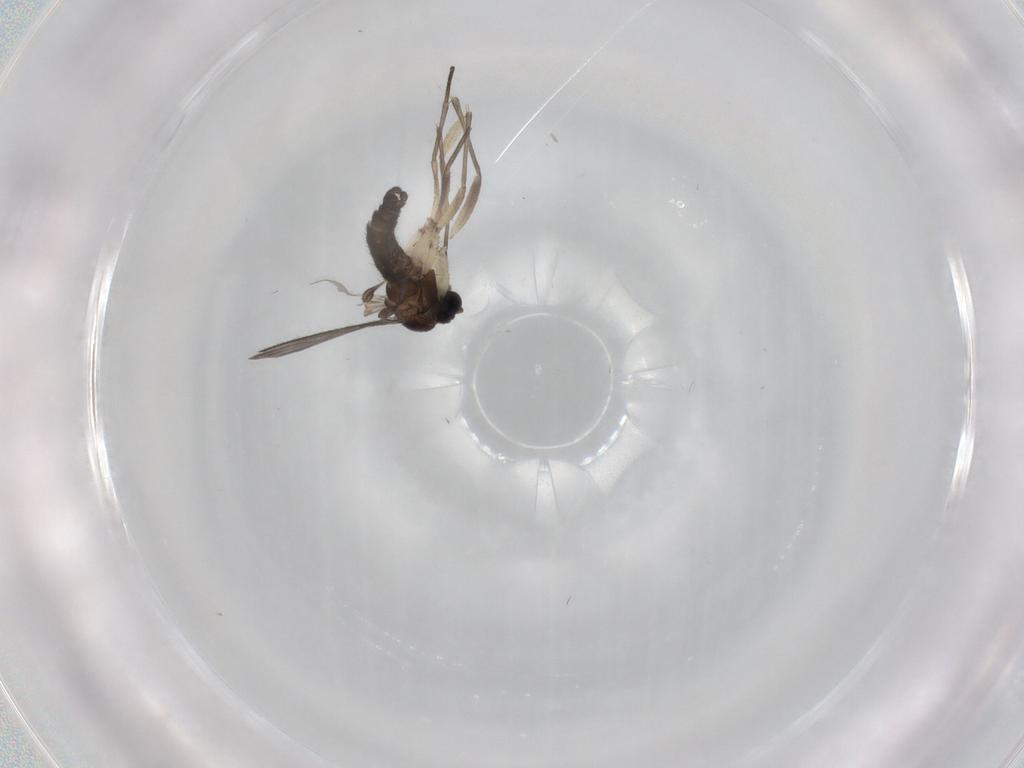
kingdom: Animalia
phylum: Arthropoda
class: Insecta
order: Diptera
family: Sciaridae
